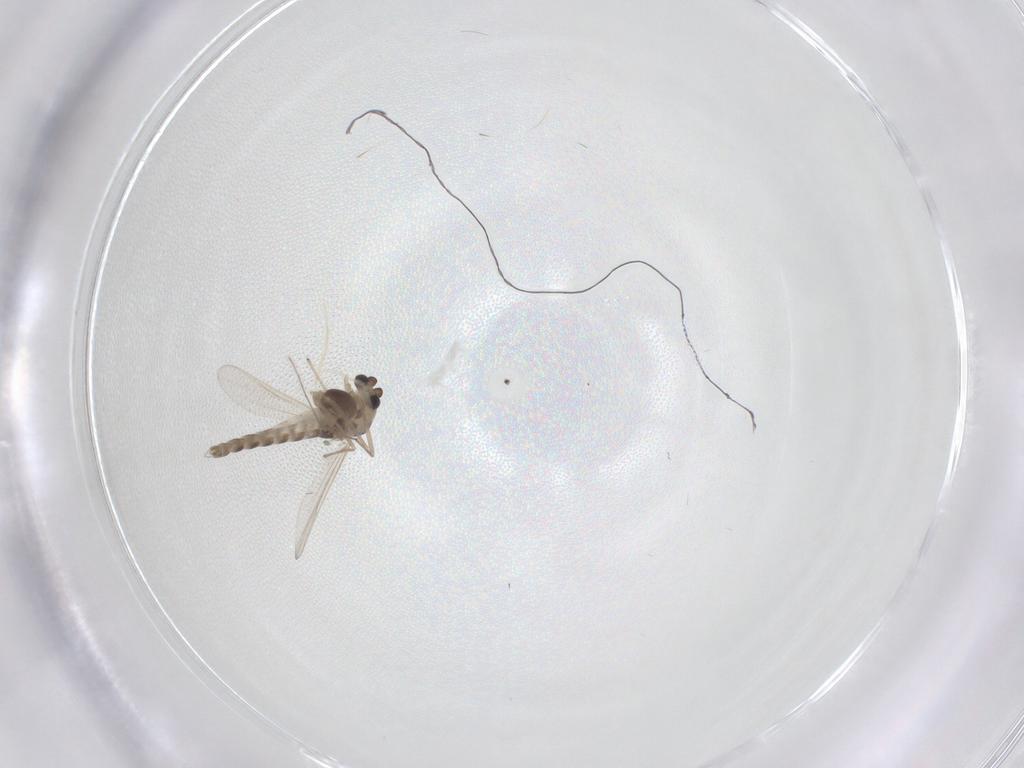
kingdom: Animalia
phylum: Arthropoda
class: Insecta
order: Diptera
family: Chironomidae
